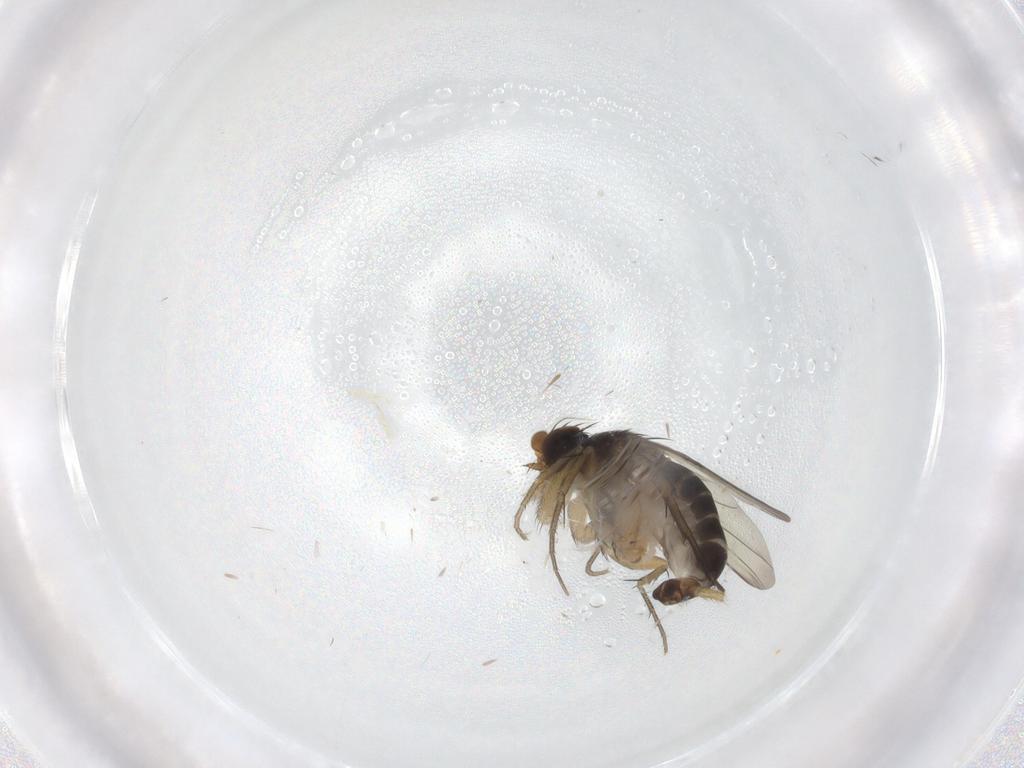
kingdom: Animalia
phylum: Arthropoda
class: Insecta
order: Diptera
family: Phoridae
